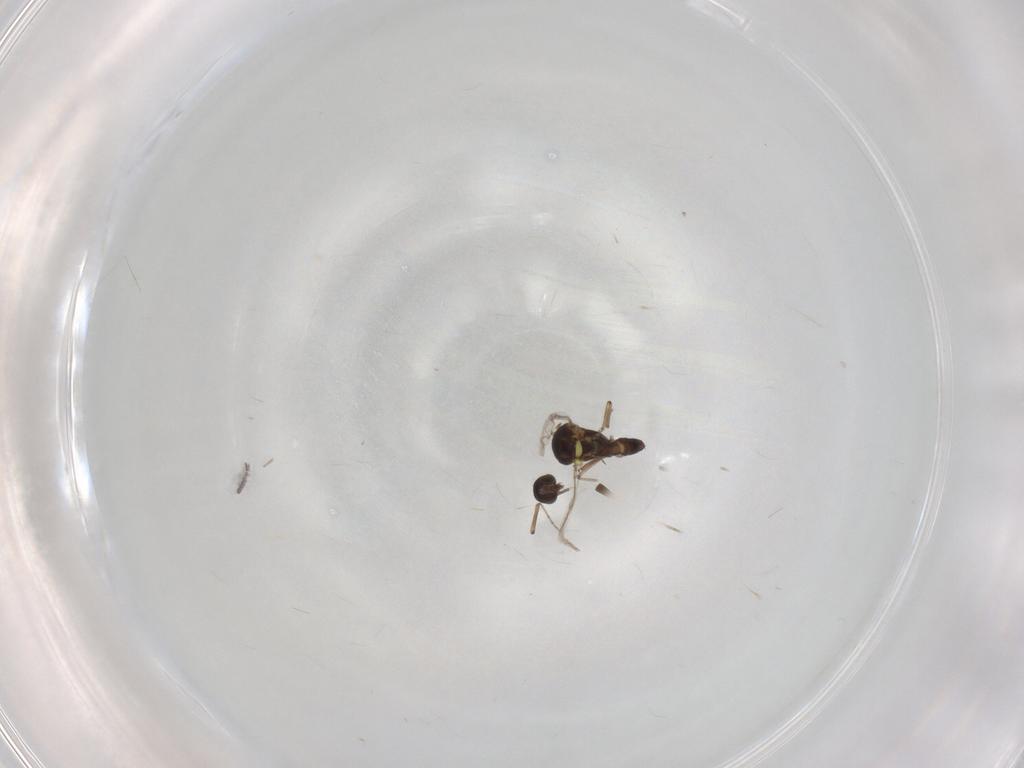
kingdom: Animalia
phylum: Arthropoda
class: Insecta
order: Diptera
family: Ceratopogonidae
